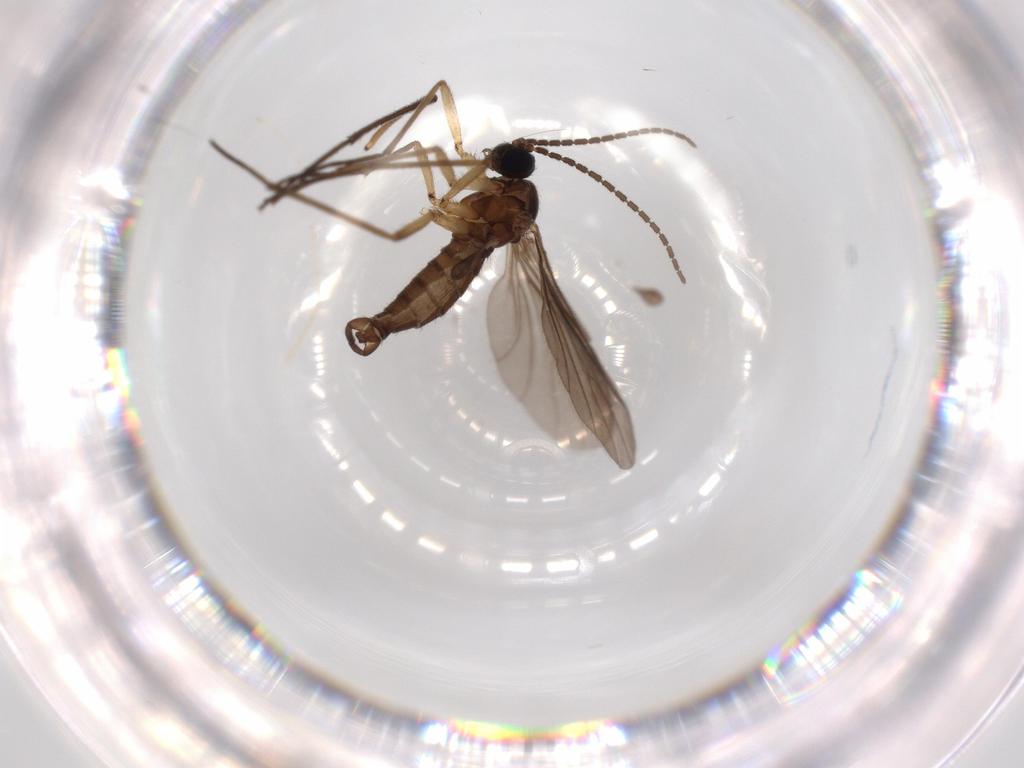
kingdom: Animalia
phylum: Arthropoda
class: Insecta
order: Diptera
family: Sciaridae
